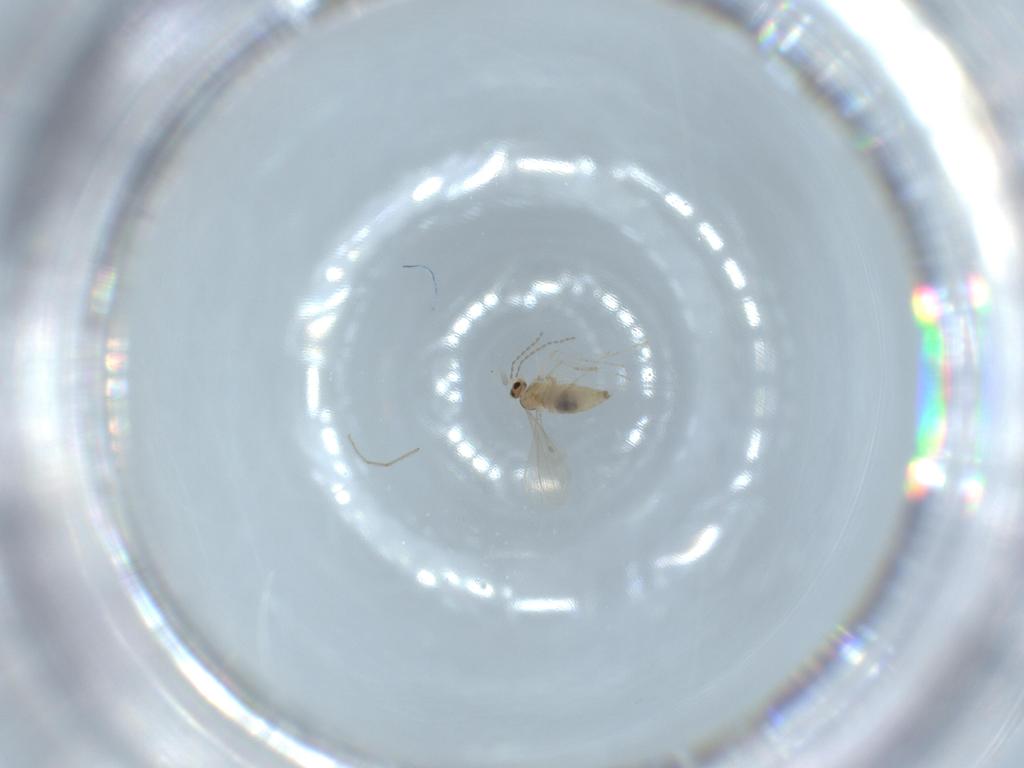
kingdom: Animalia
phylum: Arthropoda
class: Insecta
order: Diptera
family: Cecidomyiidae
